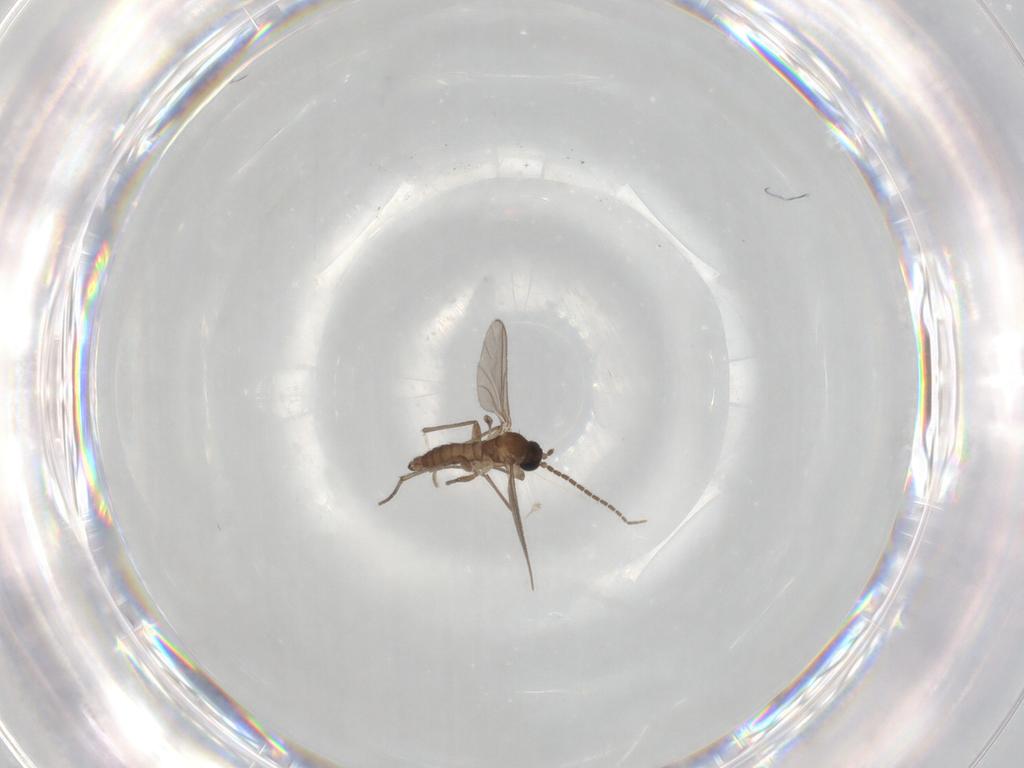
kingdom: Animalia
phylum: Arthropoda
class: Insecta
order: Diptera
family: Sciaridae
